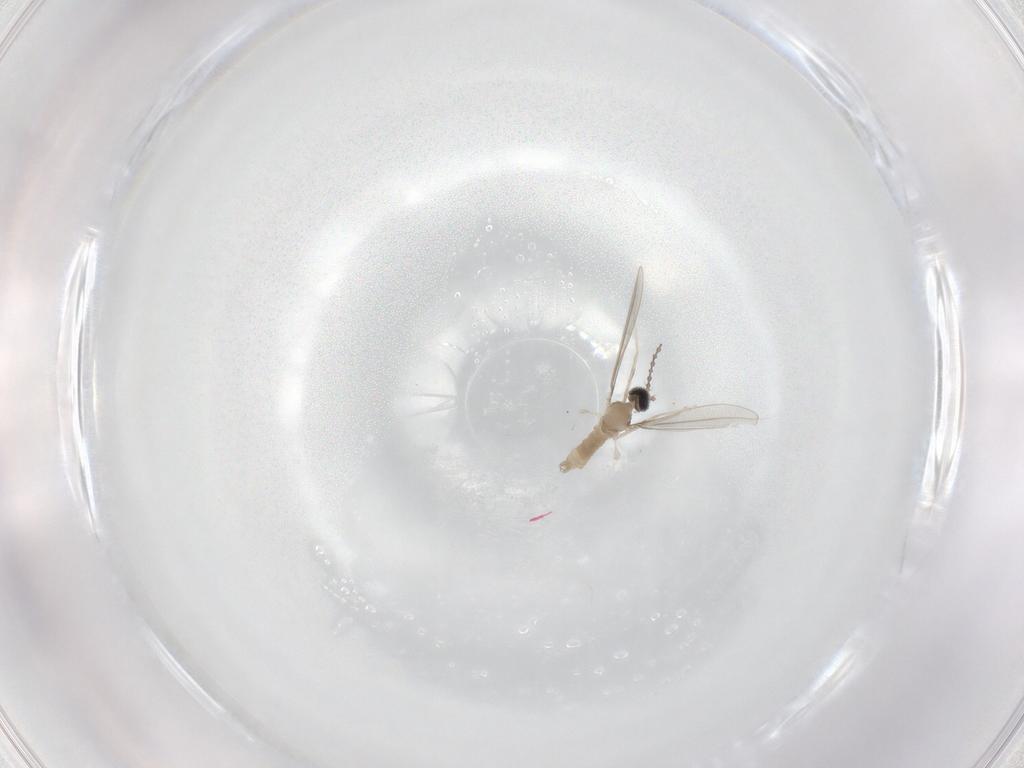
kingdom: Animalia
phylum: Arthropoda
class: Insecta
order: Diptera
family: Cecidomyiidae
